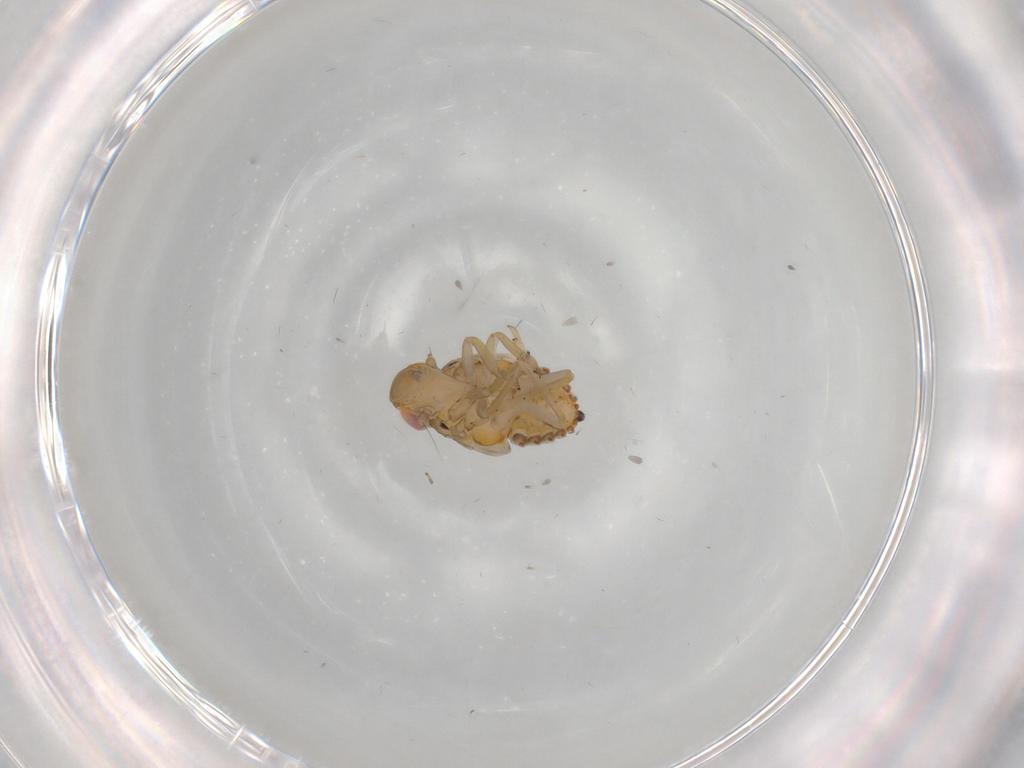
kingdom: Animalia
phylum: Arthropoda
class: Insecta
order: Hemiptera
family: Issidae
